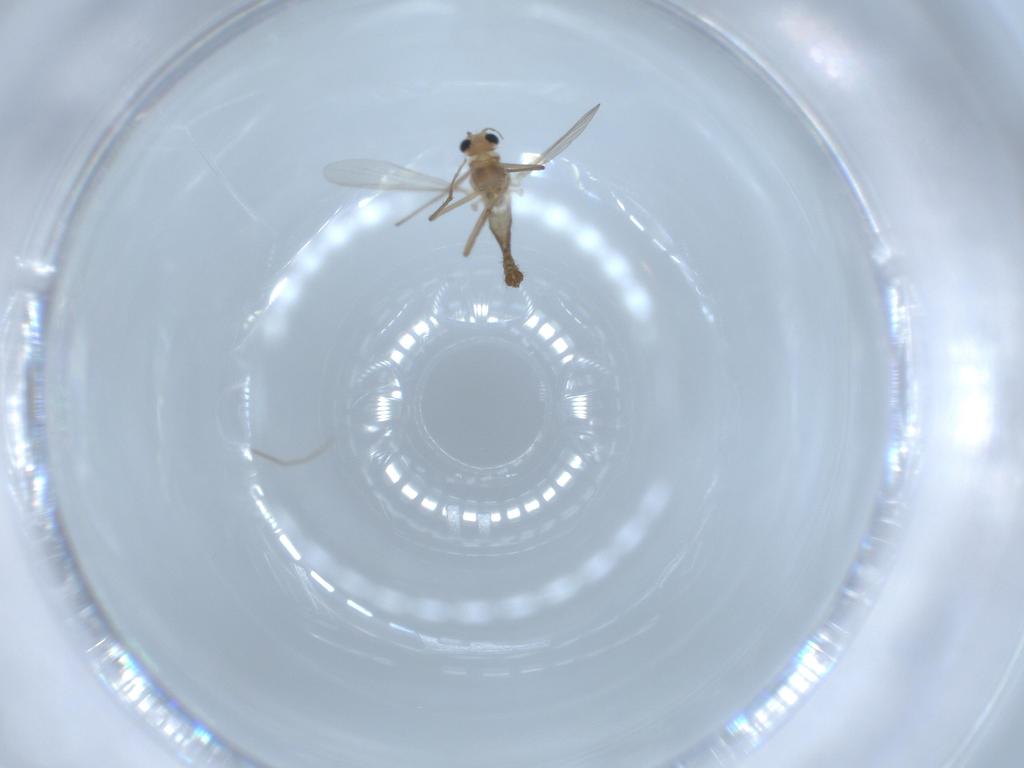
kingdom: Animalia
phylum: Arthropoda
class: Insecta
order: Diptera
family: Chironomidae
